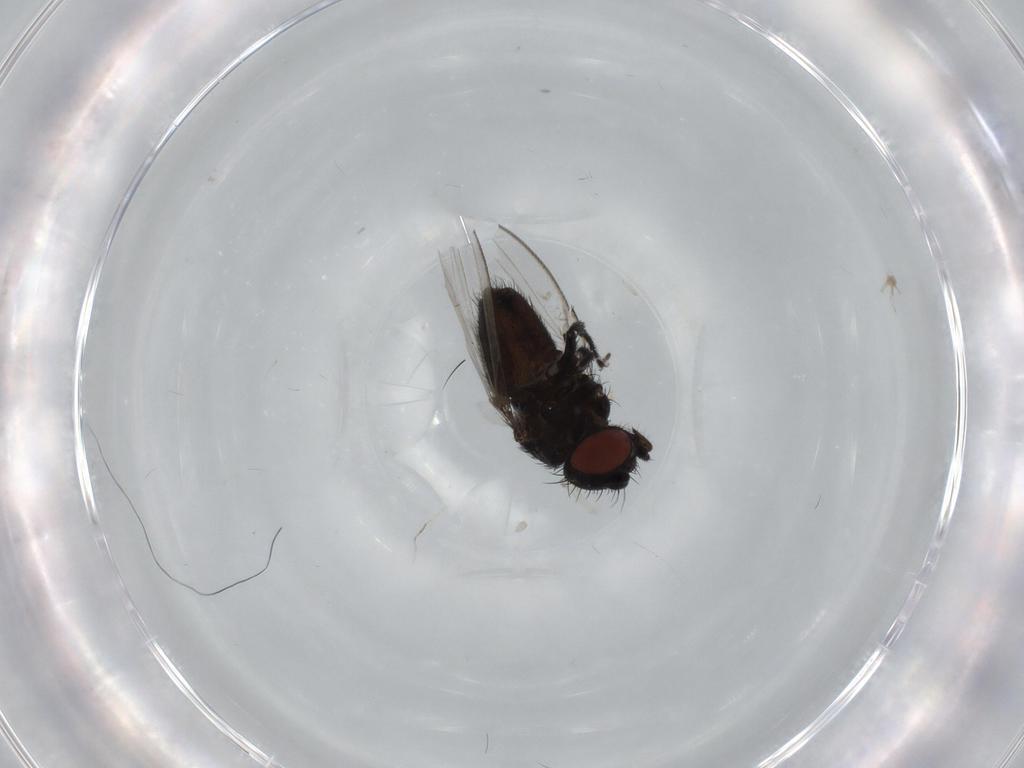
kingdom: Animalia
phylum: Arthropoda
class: Insecta
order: Diptera
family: Milichiidae
